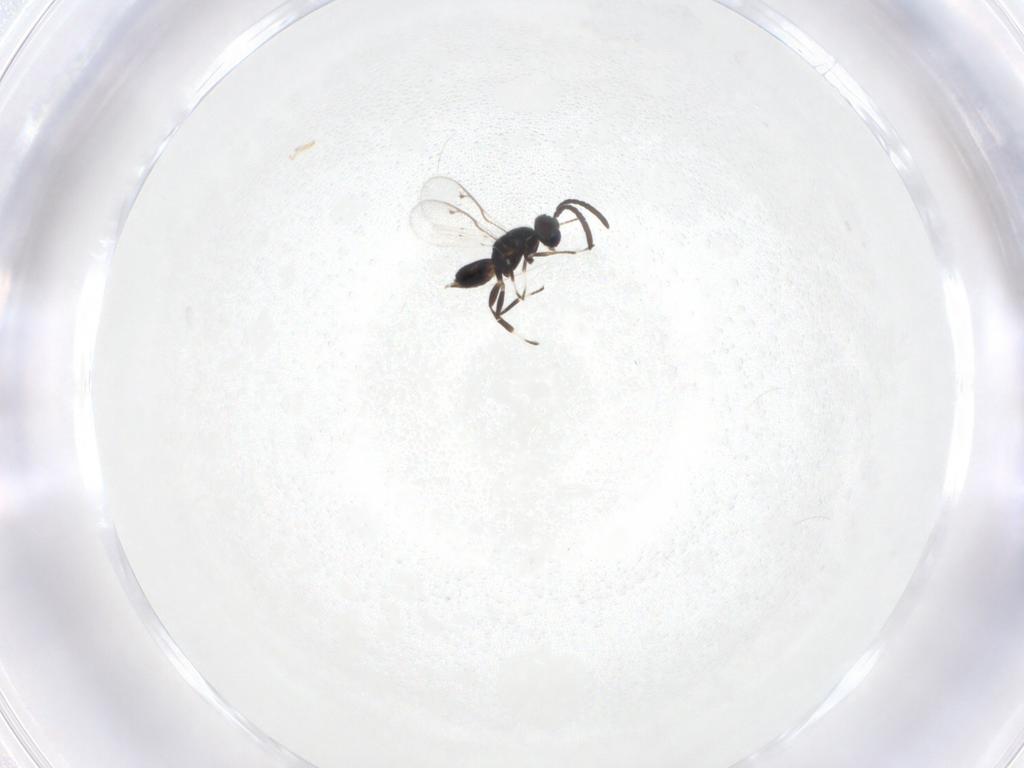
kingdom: Animalia
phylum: Arthropoda
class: Insecta
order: Hymenoptera
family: Eupelmidae
